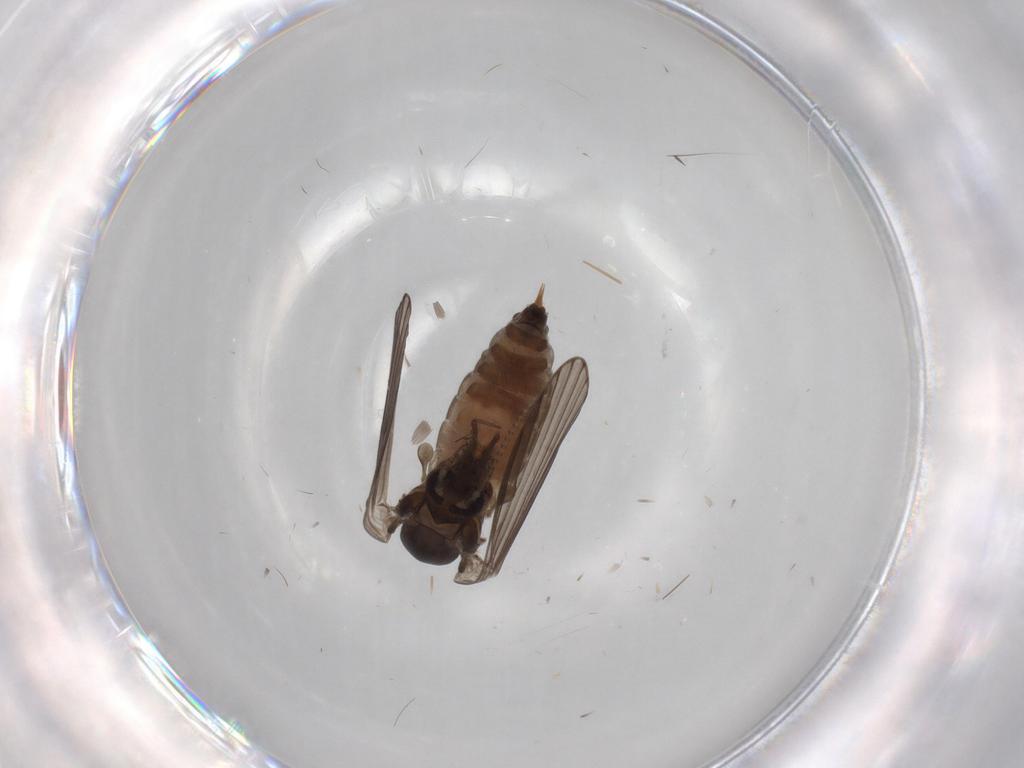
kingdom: Animalia
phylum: Arthropoda
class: Insecta
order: Diptera
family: Psychodidae
